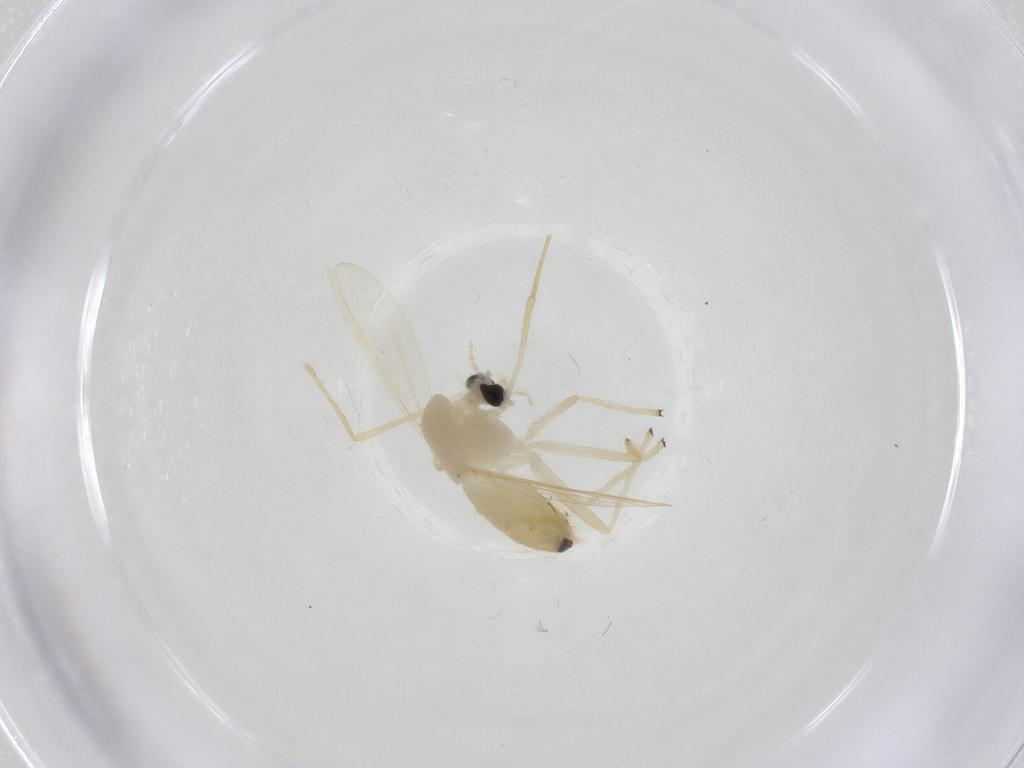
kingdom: Animalia
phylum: Arthropoda
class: Insecta
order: Diptera
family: Chironomidae
